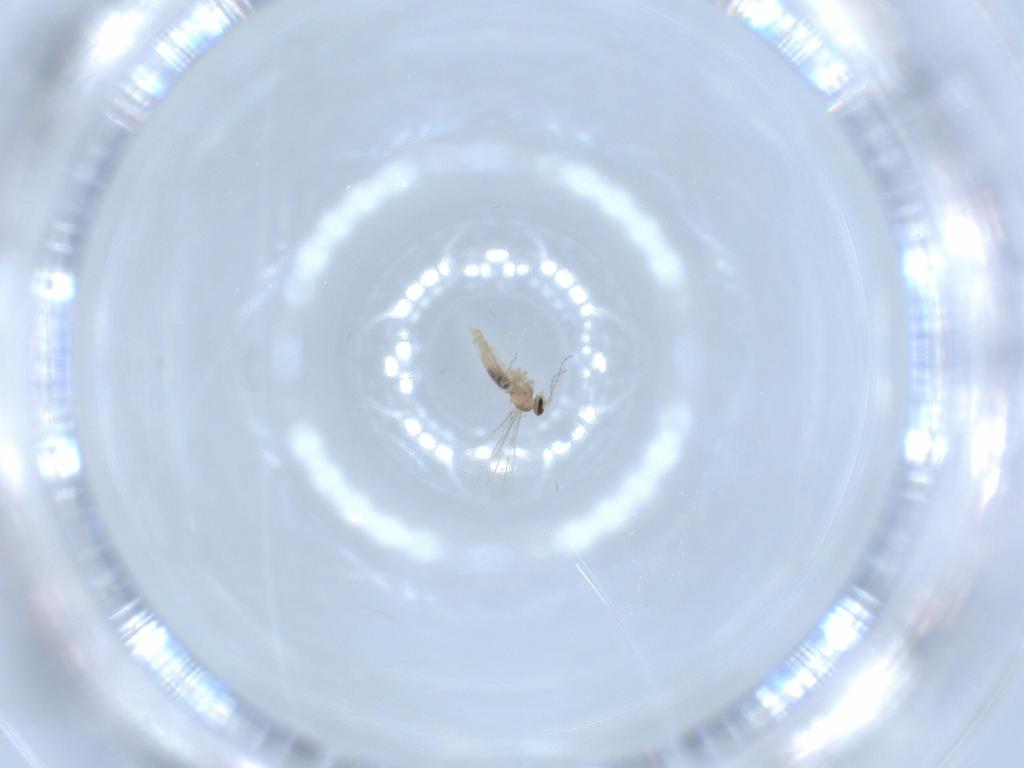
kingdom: Animalia
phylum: Arthropoda
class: Insecta
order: Diptera
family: Cecidomyiidae
